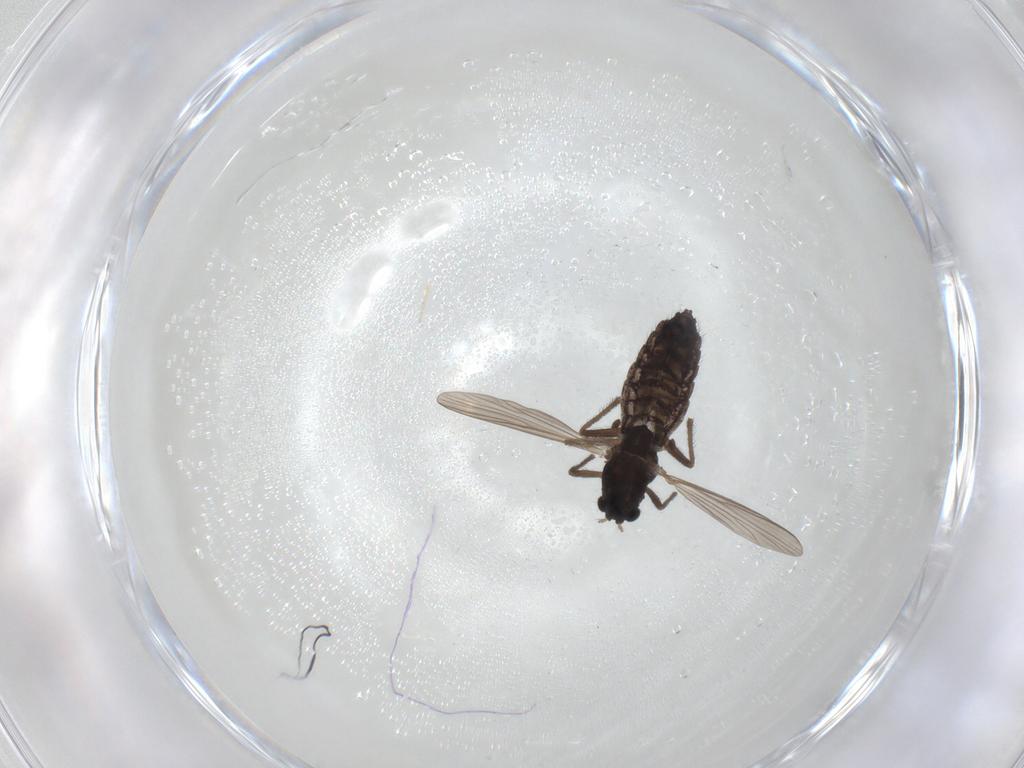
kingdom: Animalia
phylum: Arthropoda
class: Insecta
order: Diptera
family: Chironomidae
